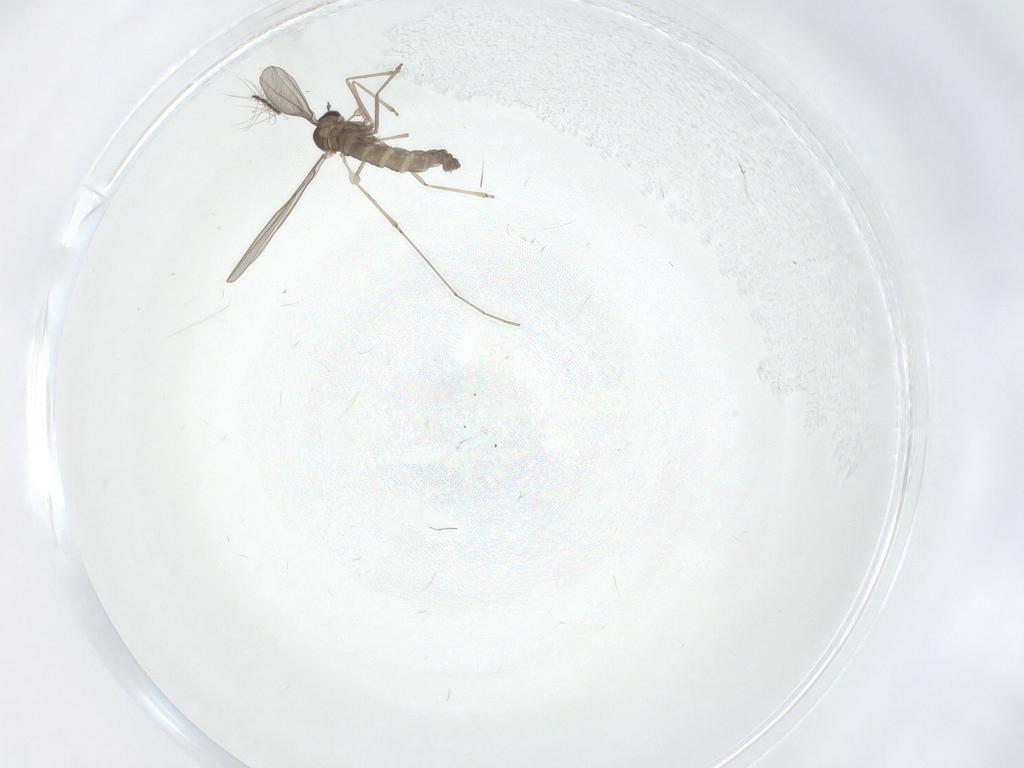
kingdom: Animalia
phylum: Arthropoda
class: Insecta
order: Diptera
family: Culicidae
